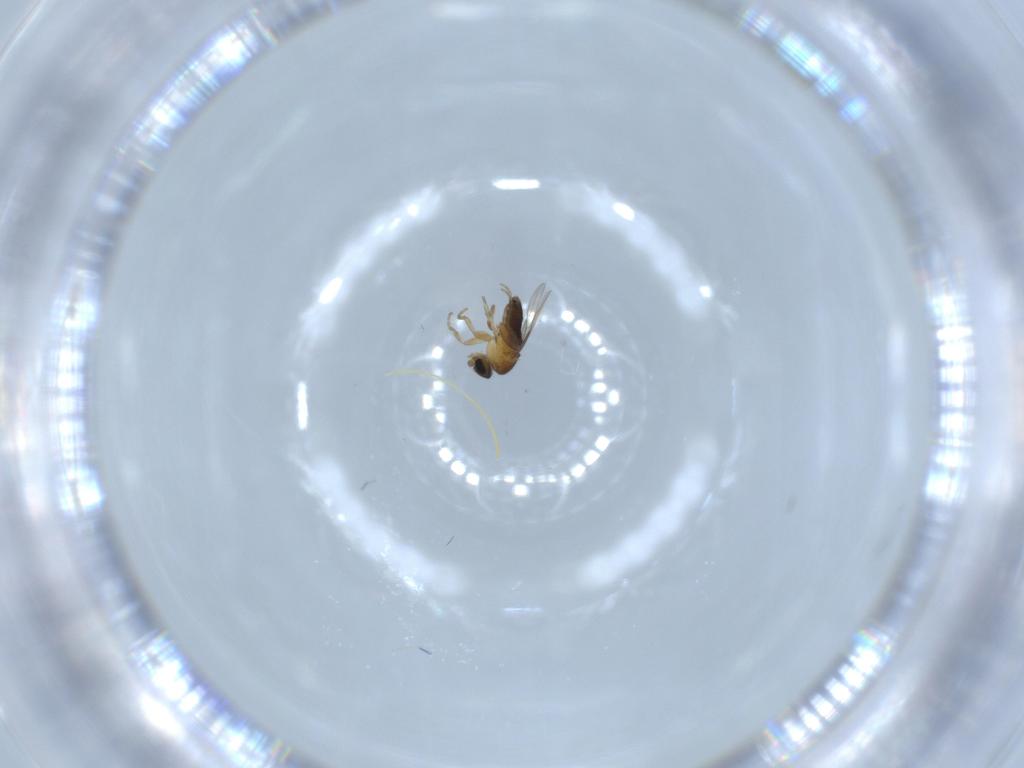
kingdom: Animalia
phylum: Arthropoda
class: Insecta
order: Diptera
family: Phoridae
